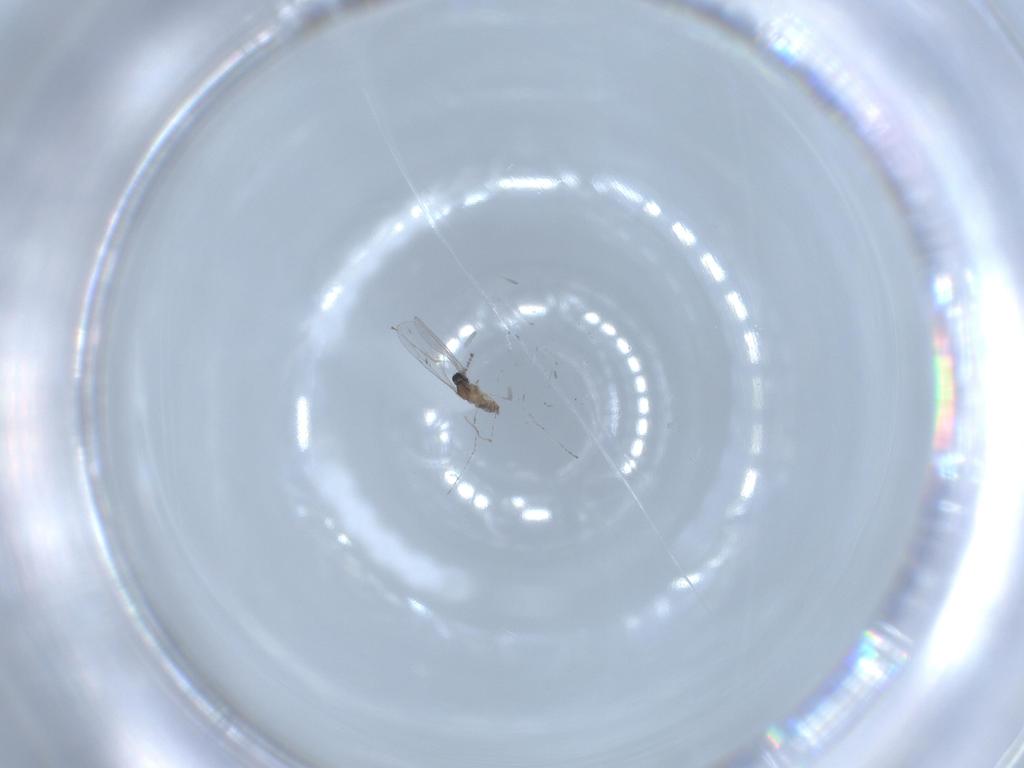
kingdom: Animalia
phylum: Arthropoda
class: Insecta
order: Diptera
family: Cecidomyiidae
